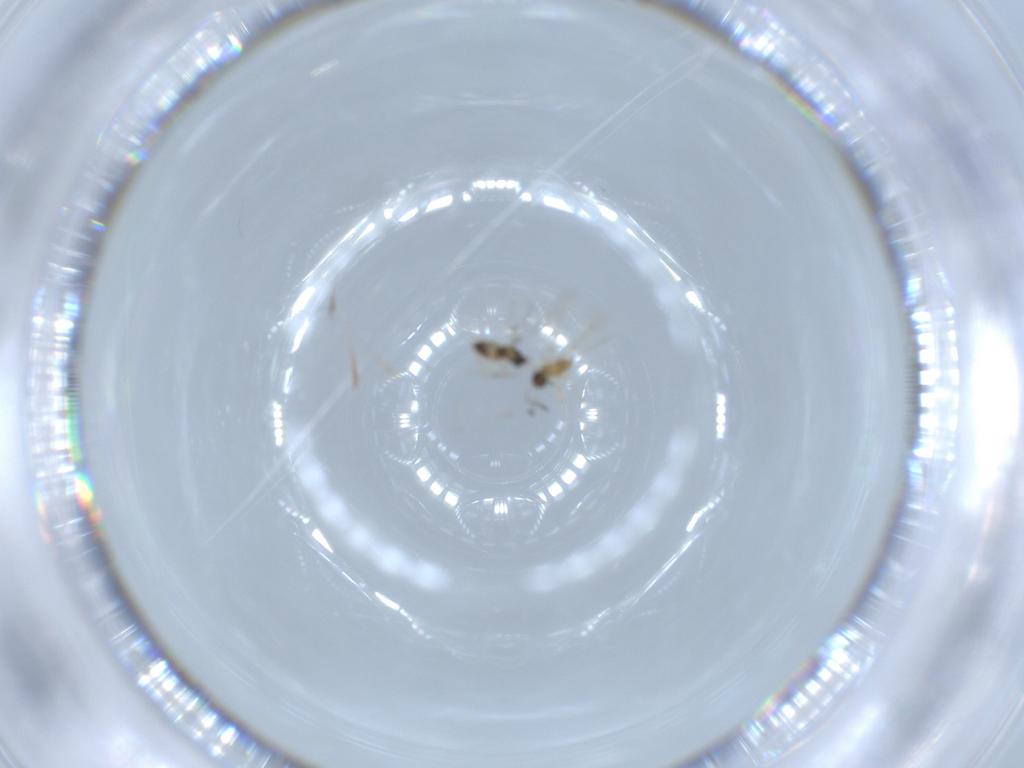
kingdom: Animalia
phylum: Arthropoda
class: Insecta
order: Hymenoptera
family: Mymaridae
